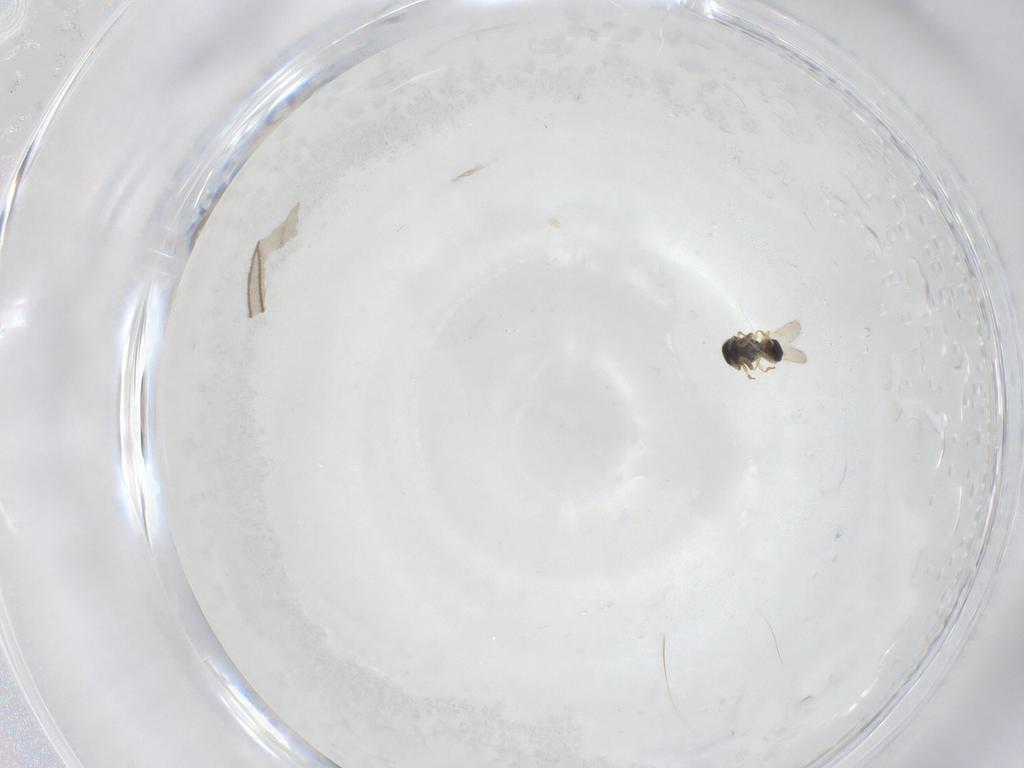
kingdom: Animalia
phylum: Arthropoda
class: Insecta
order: Hymenoptera
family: Scelionidae
